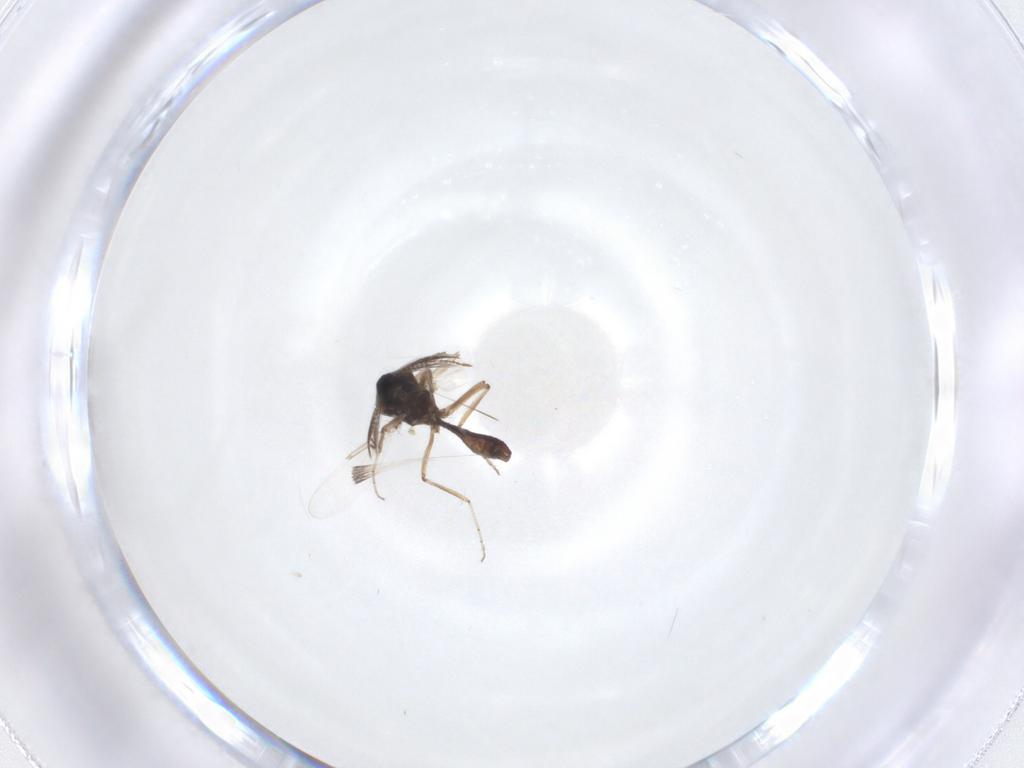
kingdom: Animalia
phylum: Arthropoda
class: Insecta
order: Diptera
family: Ceratopogonidae
